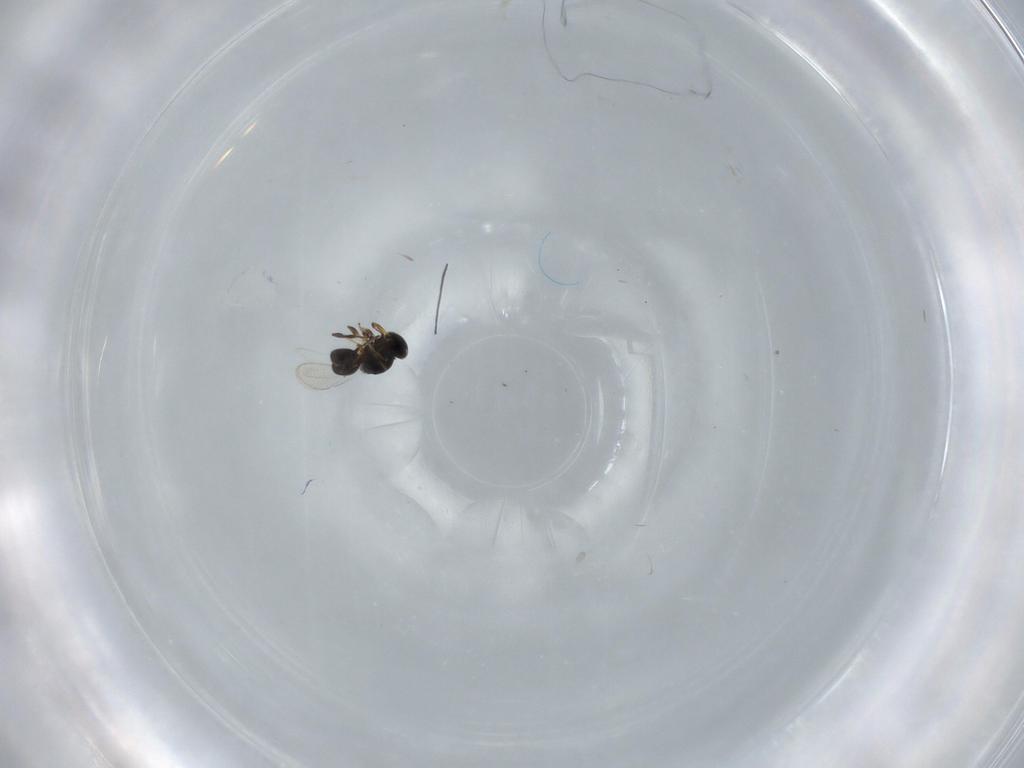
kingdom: Animalia
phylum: Arthropoda
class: Insecta
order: Hymenoptera
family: Platygastridae
